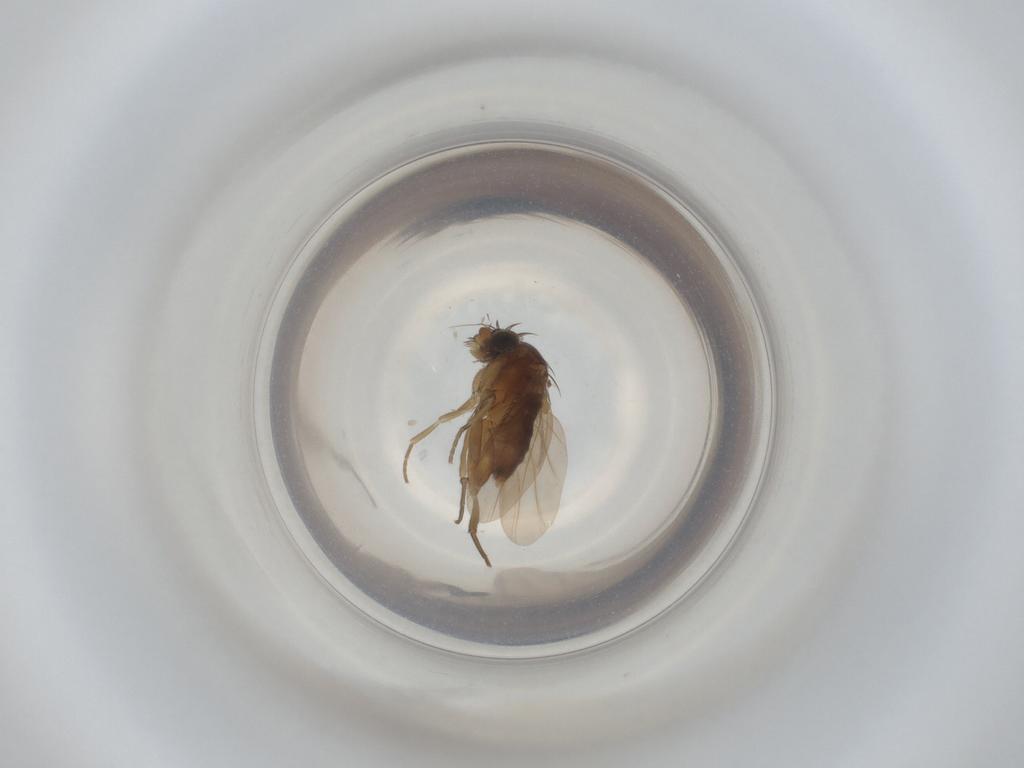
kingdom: Animalia
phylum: Arthropoda
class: Insecta
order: Diptera
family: Phoridae
